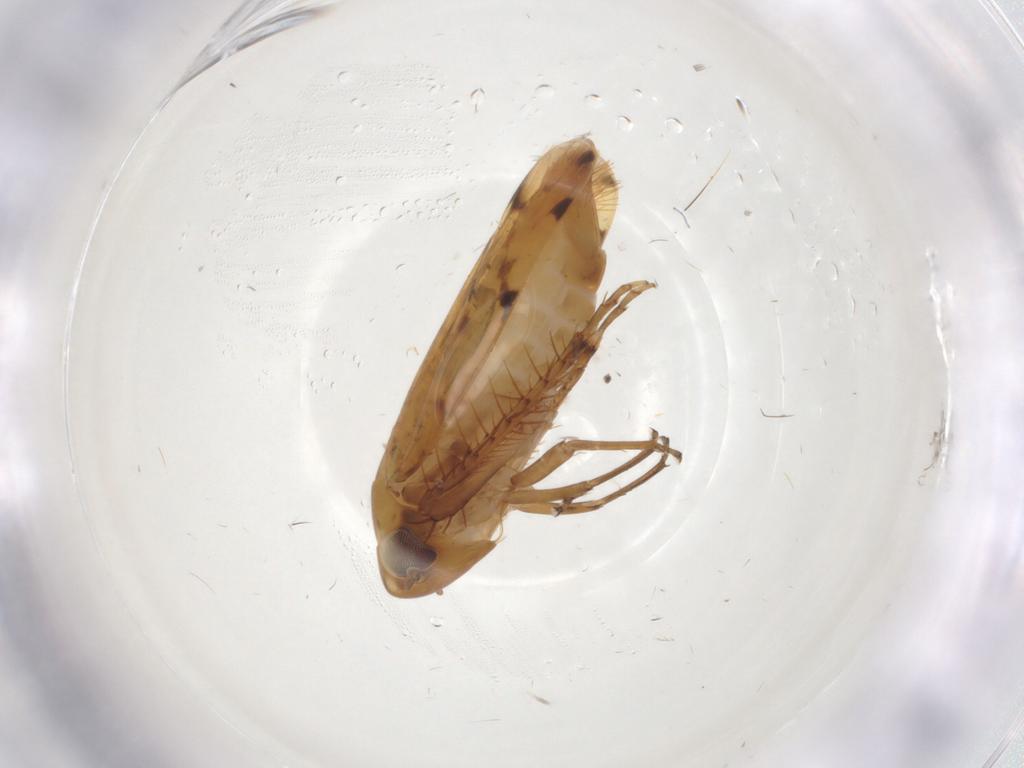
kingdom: Animalia
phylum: Arthropoda
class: Insecta
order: Hemiptera
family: Cicadellidae
